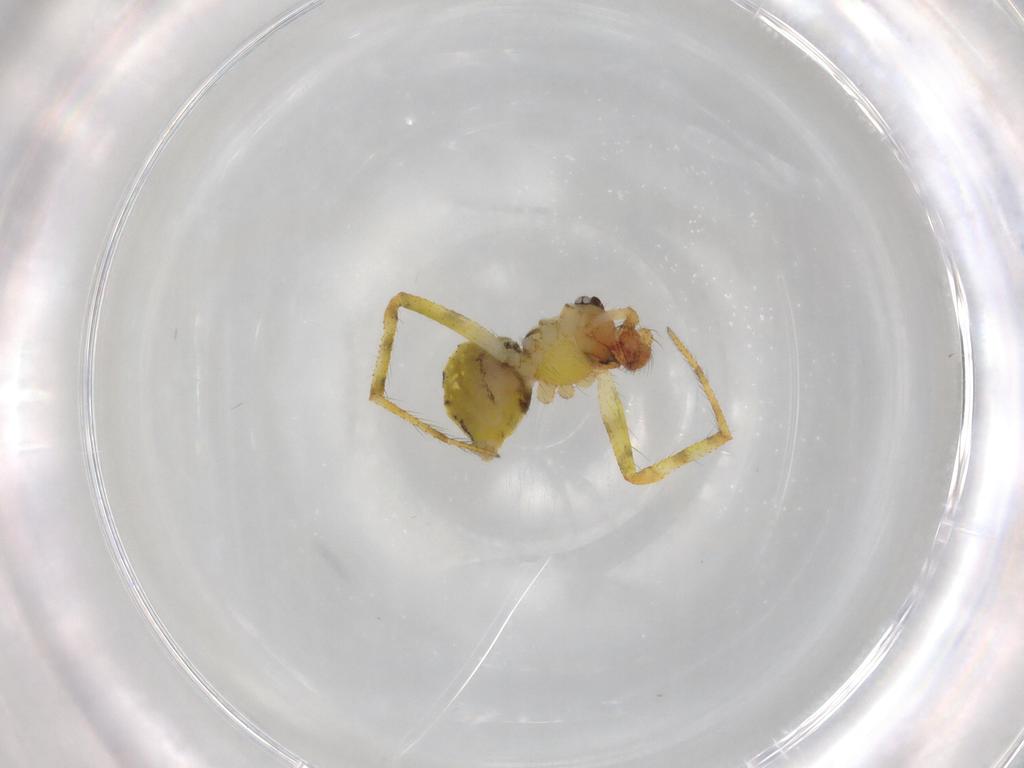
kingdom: Animalia
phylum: Arthropoda
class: Arachnida
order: Araneae
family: Theridiidae
